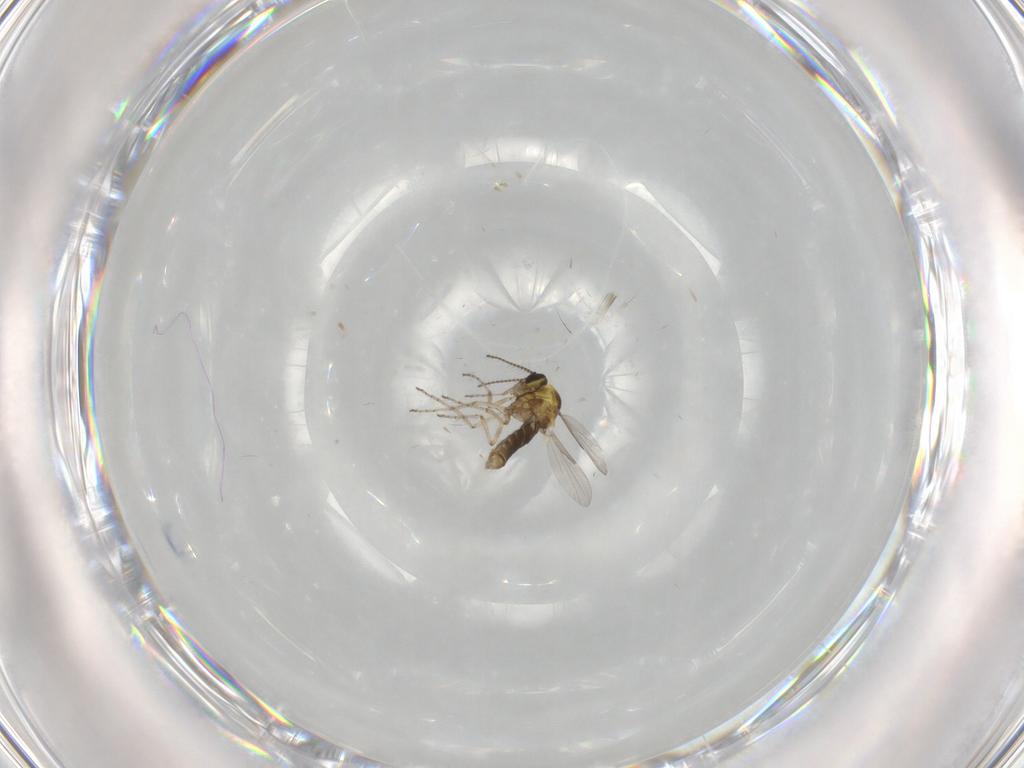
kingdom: Animalia
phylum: Arthropoda
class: Insecta
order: Diptera
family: Ceratopogonidae
